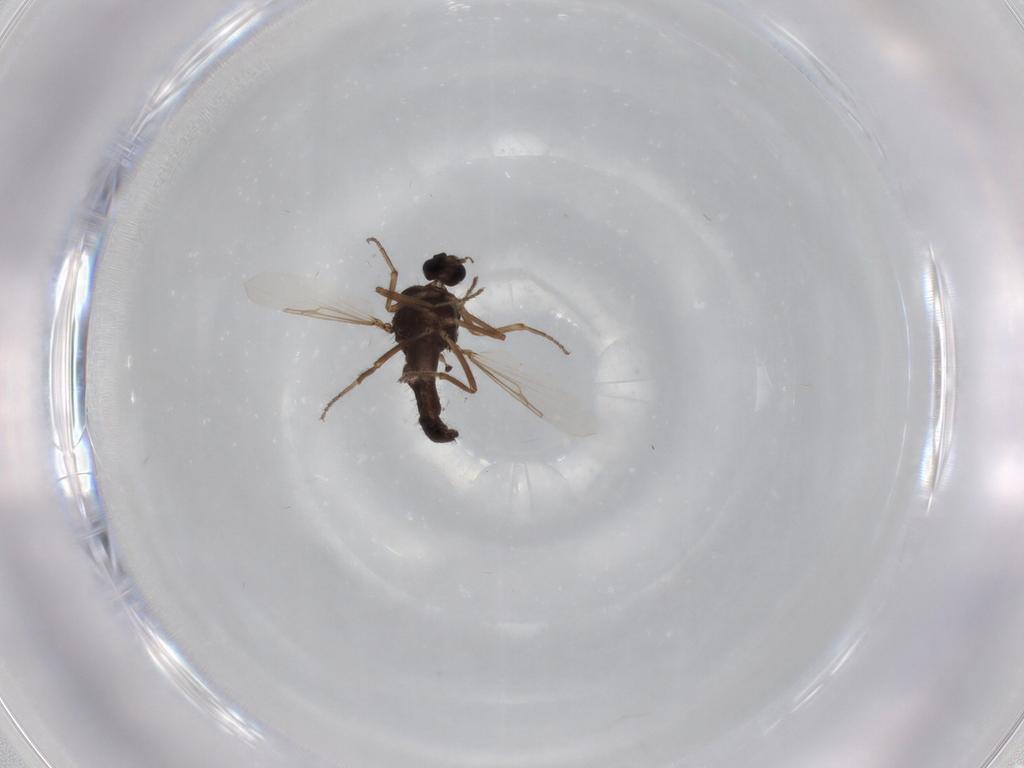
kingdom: Animalia
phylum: Arthropoda
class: Insecta
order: Diptera
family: Ceratopogonidae
